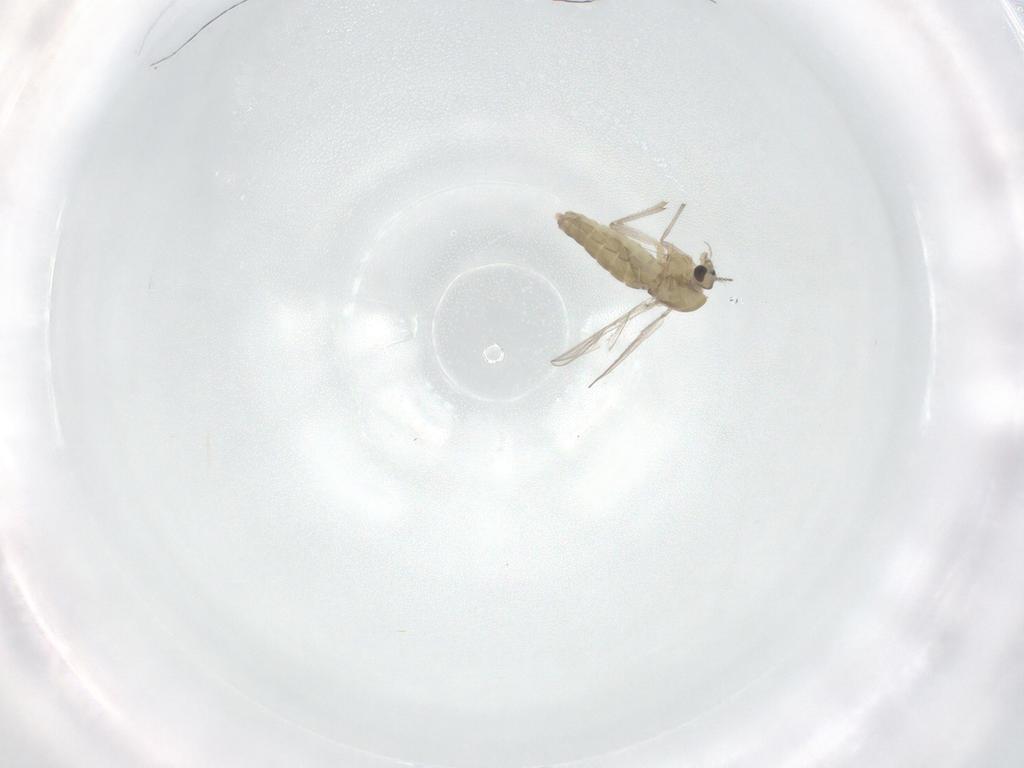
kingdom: Animalia
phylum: Arthropoda
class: Insecta
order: Diptera
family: Chironomidae
